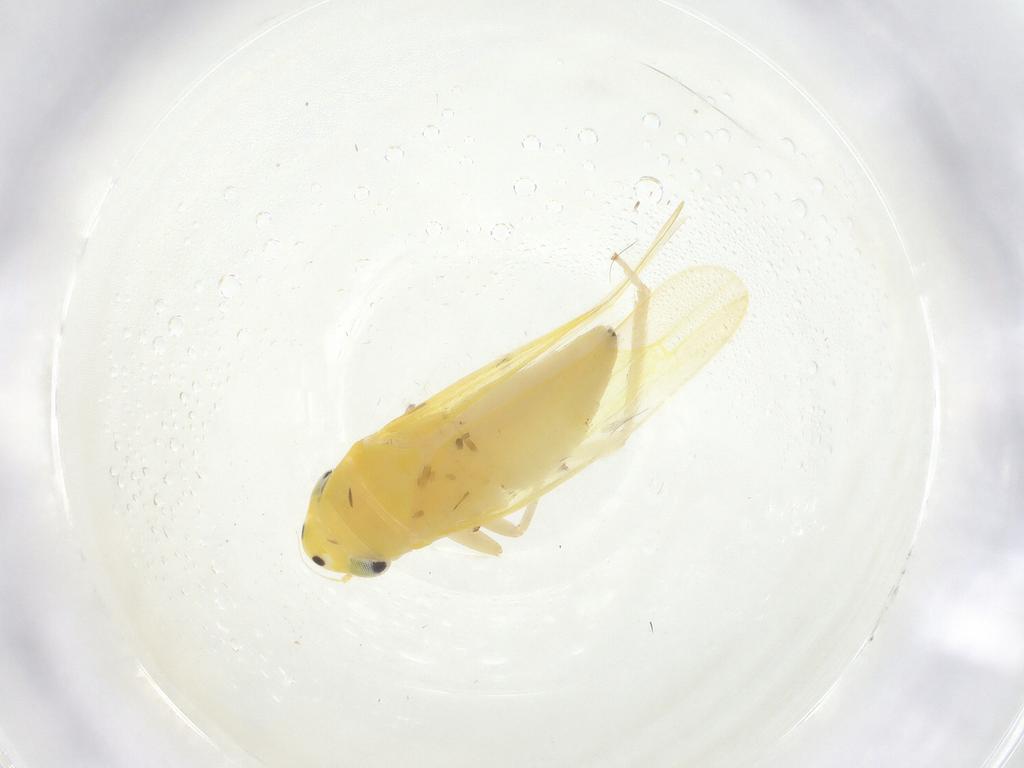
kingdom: Animalia
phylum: Arthropoda
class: Insecta
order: Hemiptera
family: Cicadellidae
